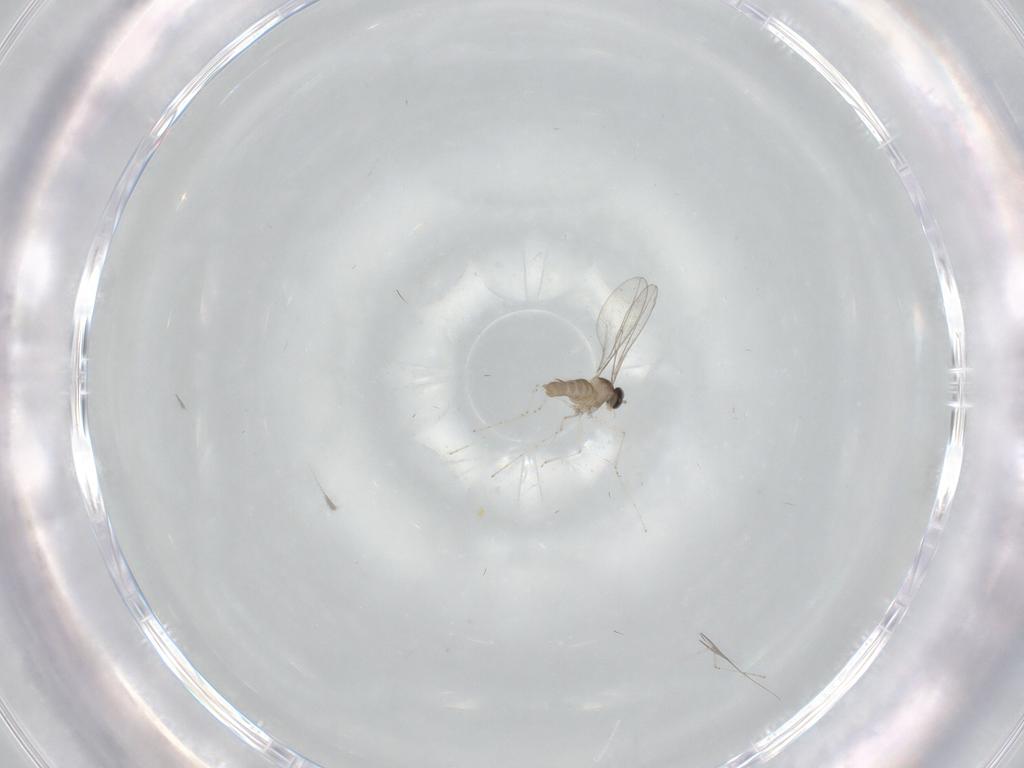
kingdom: Animalia
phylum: Arthropoda
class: Insecta
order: Diptera
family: Cecidomyiidae
